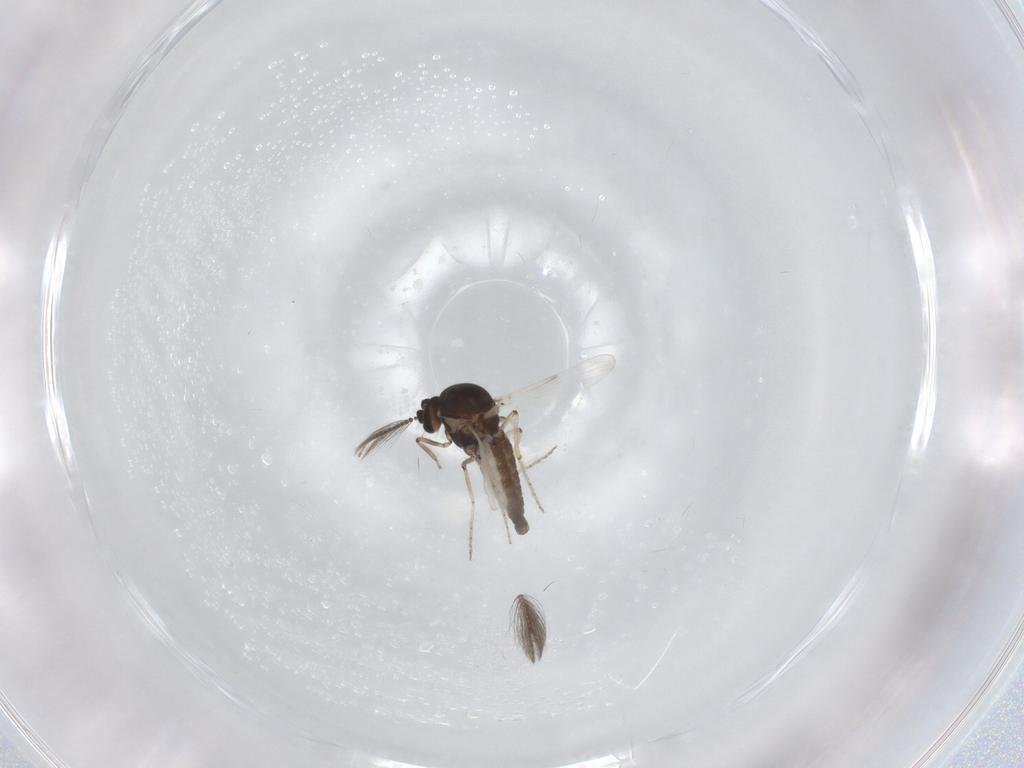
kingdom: Animalia
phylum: Arthropoda
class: Insecta
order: Diptera
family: Ceratopogonidae
